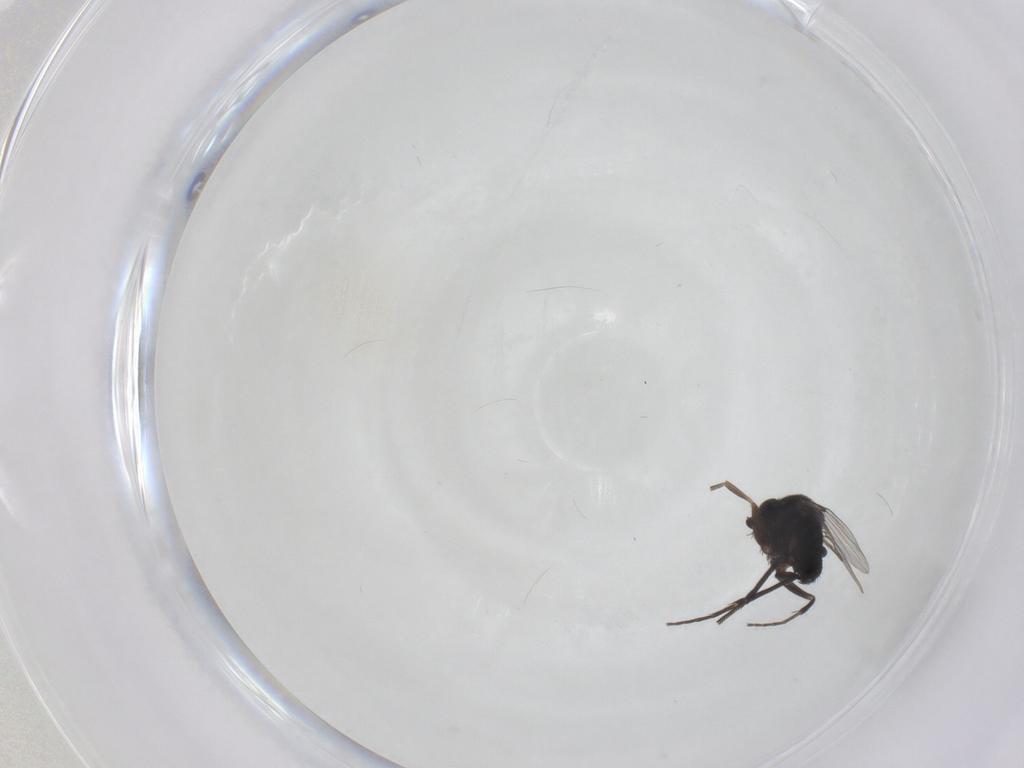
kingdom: Animalia
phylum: Arthropoda
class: Insecta
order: Diptera
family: Phoridae
